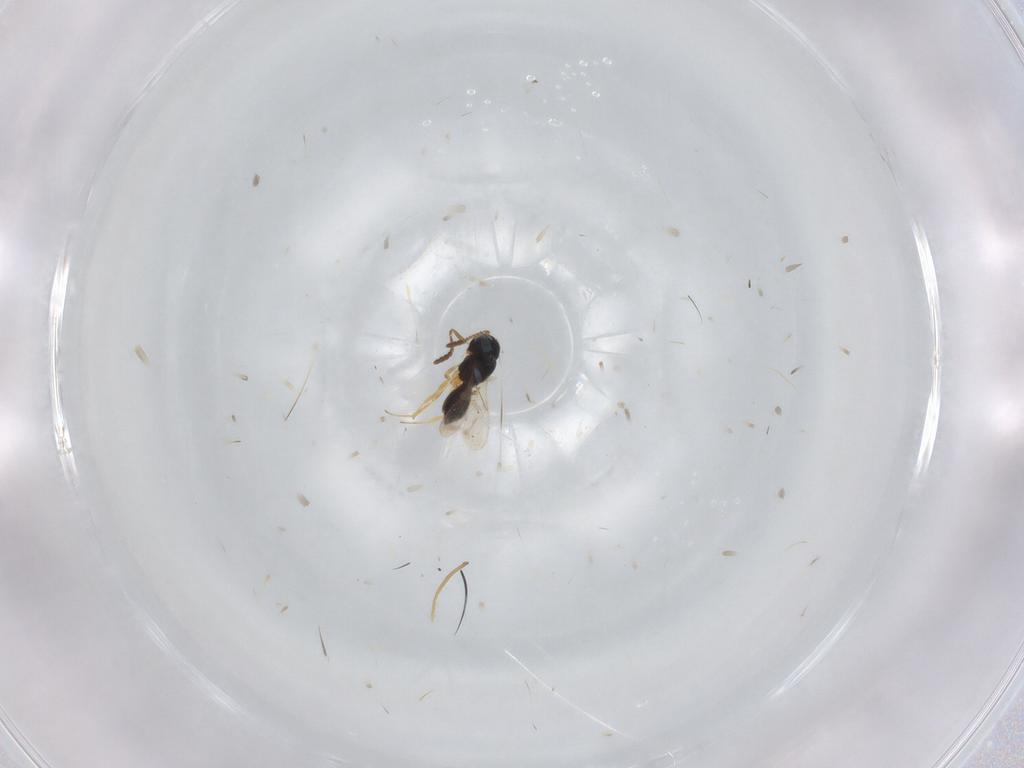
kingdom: Animalia
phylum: Arthropoda
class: Insecta
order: Hymenoptera
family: Scelionidae
